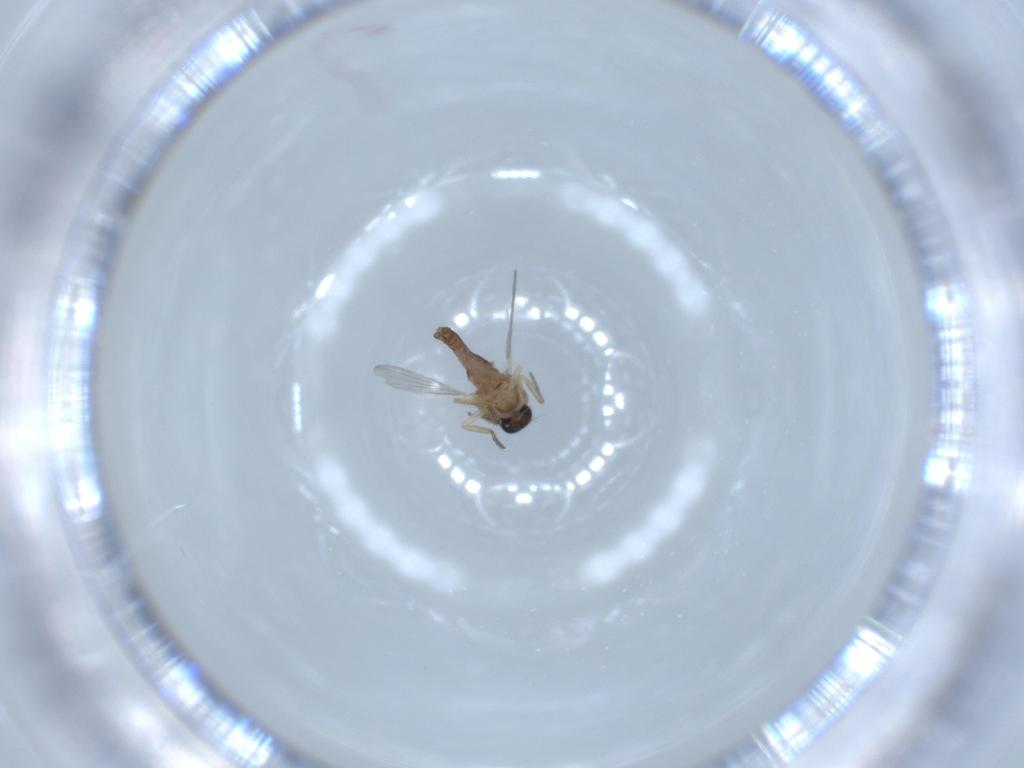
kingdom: Animalia
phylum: Arthropoda
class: Insecta
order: Diptera
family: Ceratopogonidae
